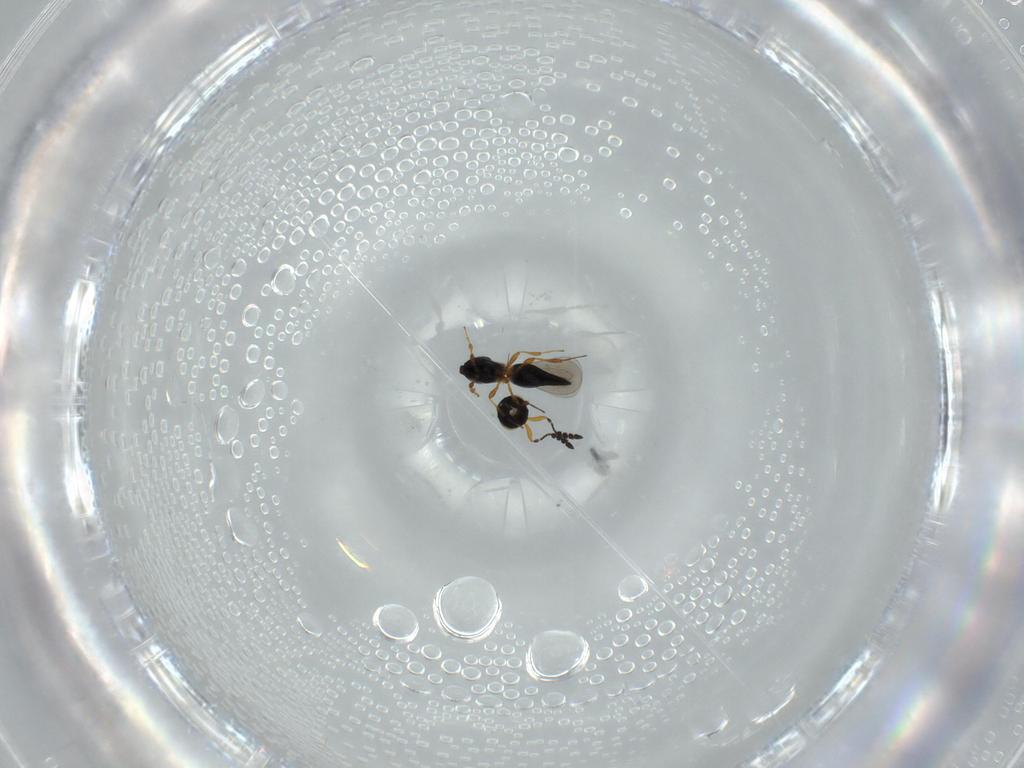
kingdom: Animalia
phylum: Arthropoda
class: Insecta
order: Hymenoptera
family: Platygastridae
